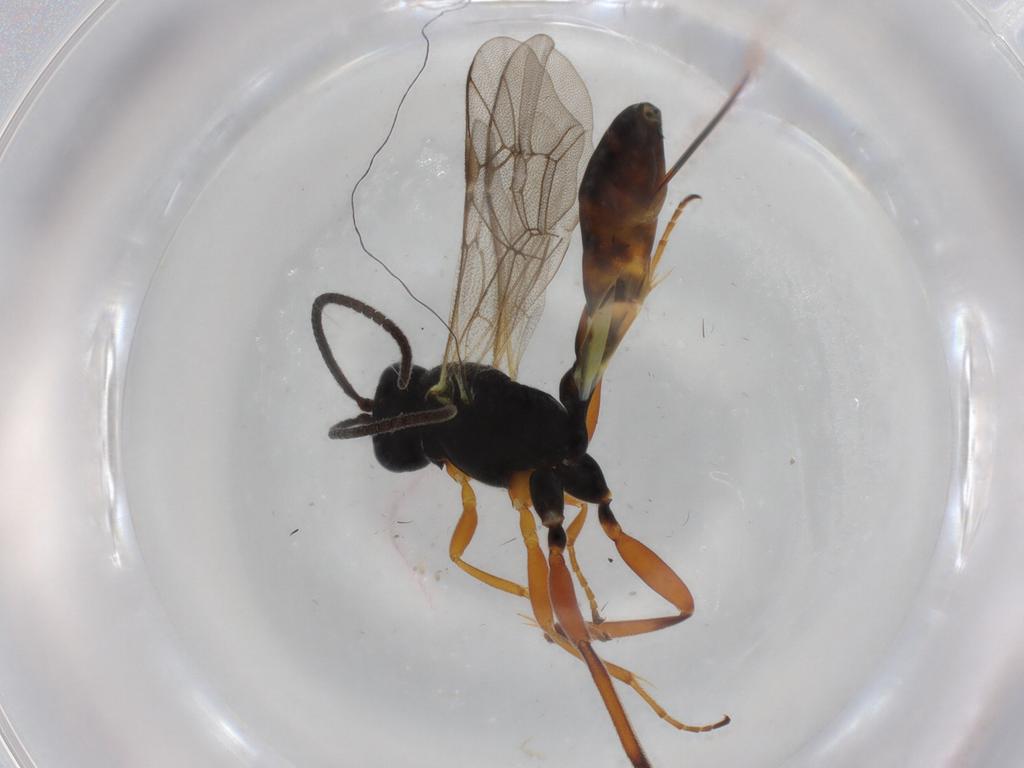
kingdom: Animalia
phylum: Arthropoda
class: Insecta
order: Hymenoptera
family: Ichneumonidae
